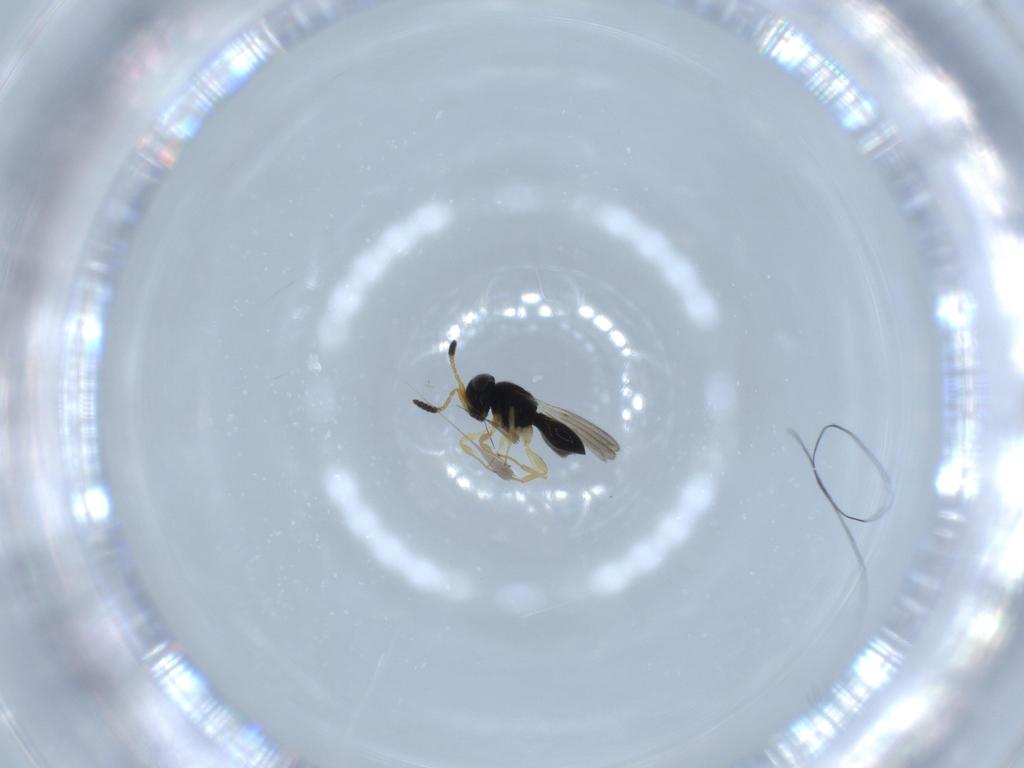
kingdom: Animalia
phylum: Arthropoda
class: Insecta
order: Hymenoptera
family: Scelionidae
